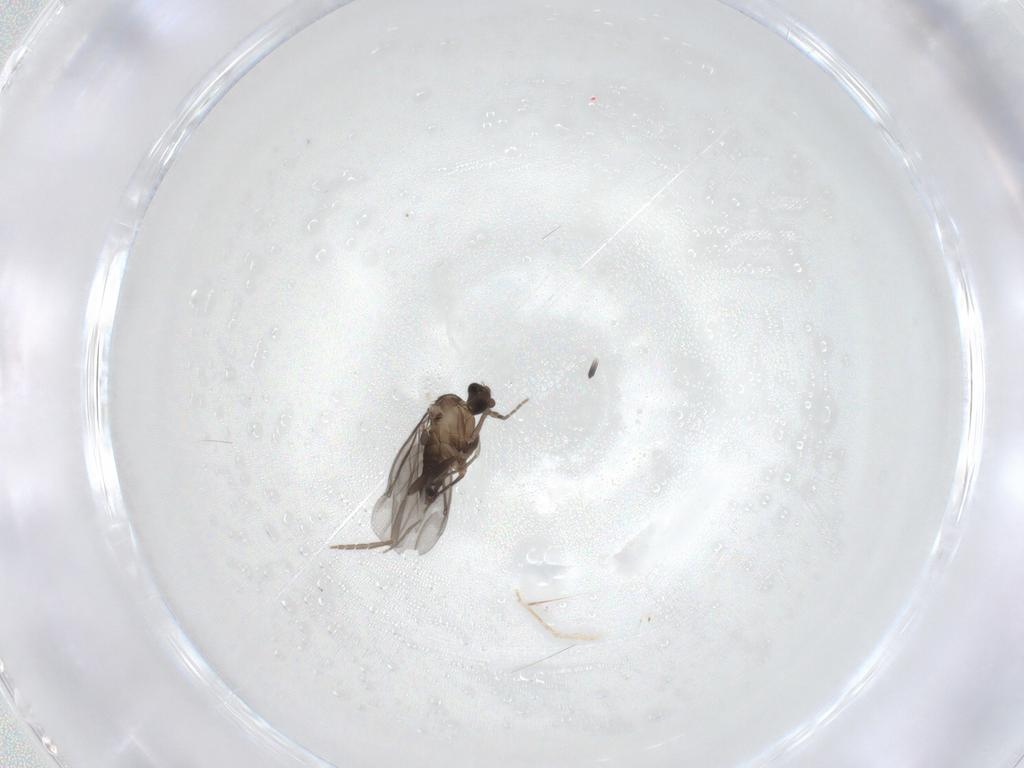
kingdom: Animalia
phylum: Arthropoda
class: Insecta
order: Diptera
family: Phoridae
